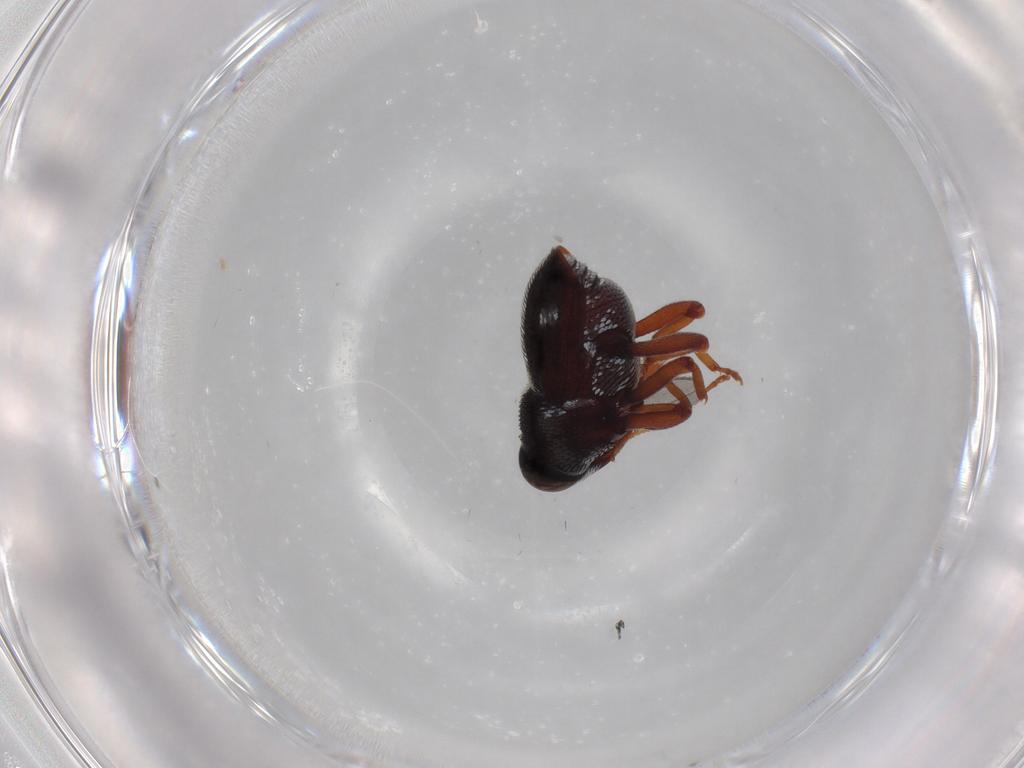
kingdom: Animalia
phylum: Arthropoda
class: Insecta
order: Coleoptera
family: Curculionidae
